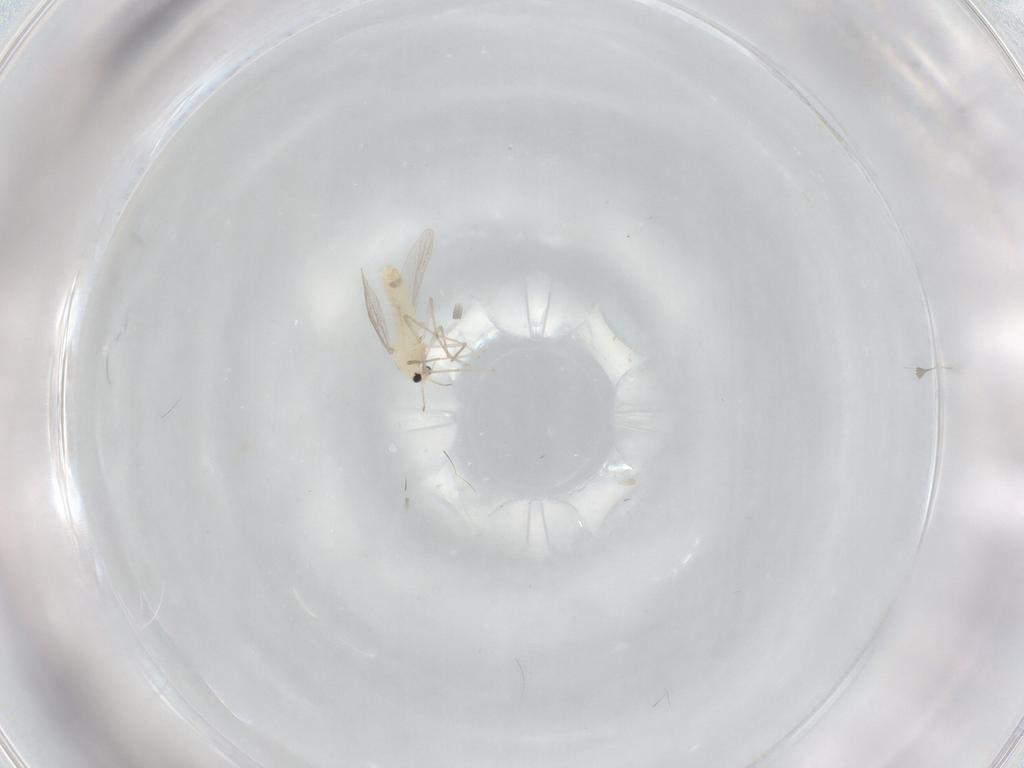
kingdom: Animalia
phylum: Arthropoda
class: Insecta
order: Diptera
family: Chironomidae
